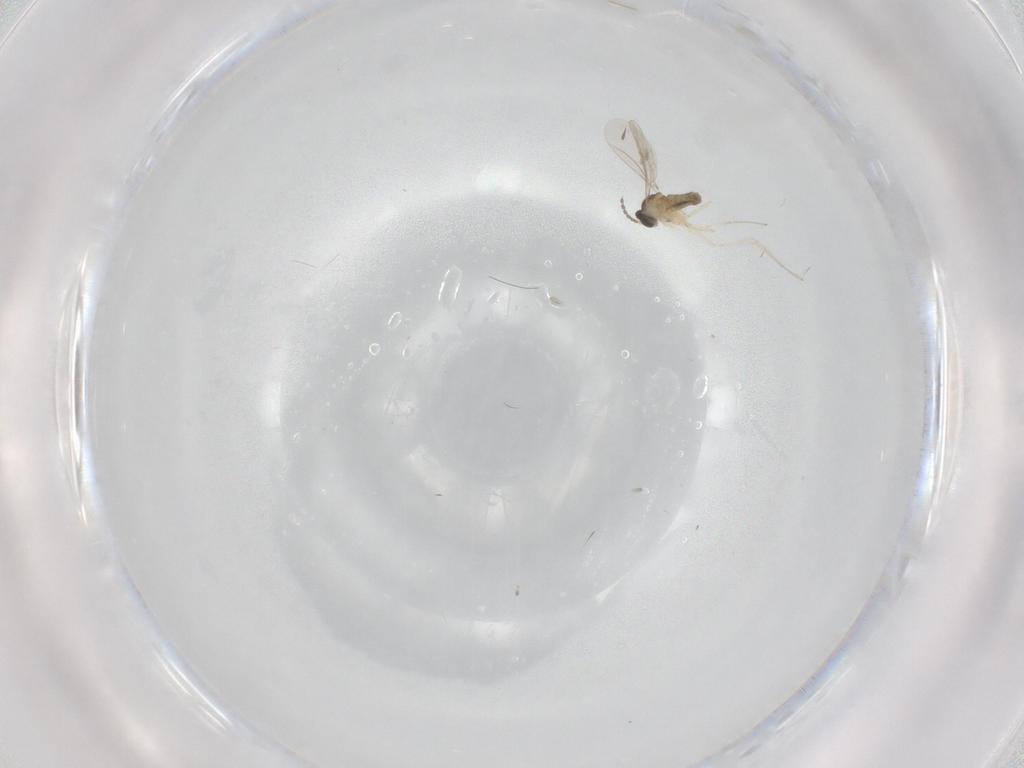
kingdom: Animalia
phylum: Arthropoda
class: Insecta
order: Diptera
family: Cecidomyiidae
